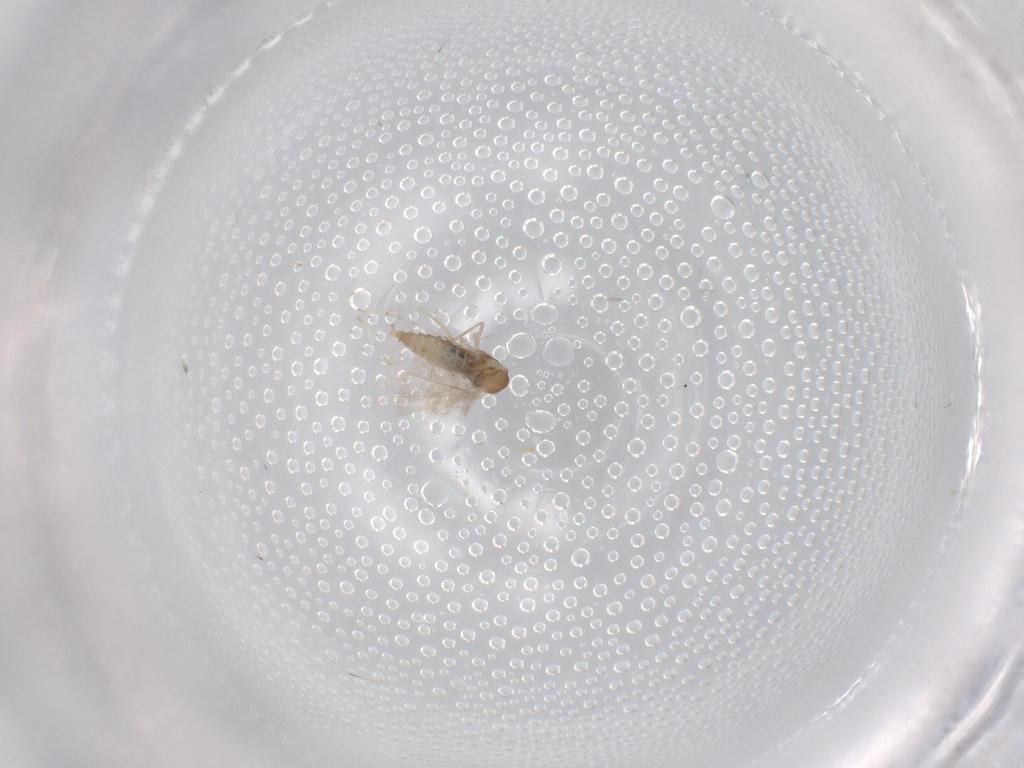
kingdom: Animalia
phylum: Arthropoda
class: Insecta
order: Diptera
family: Cecidomyiidae
